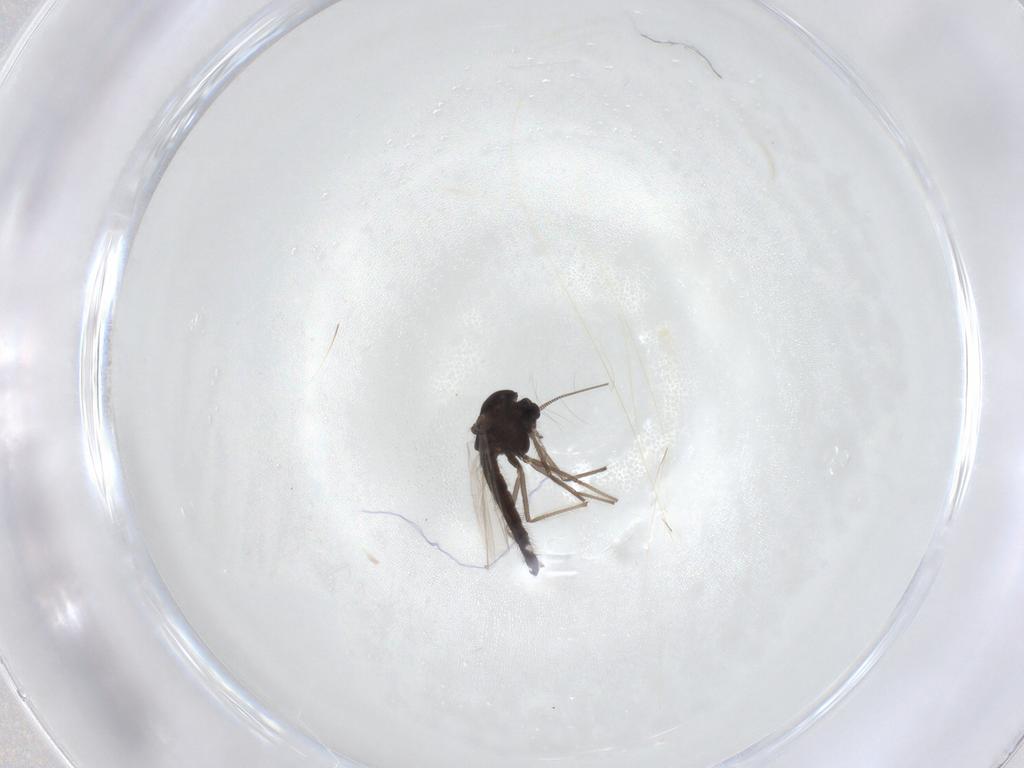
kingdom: Animalia
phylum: Arthropoda
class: Insecta
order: Diptera
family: Chironomidae
